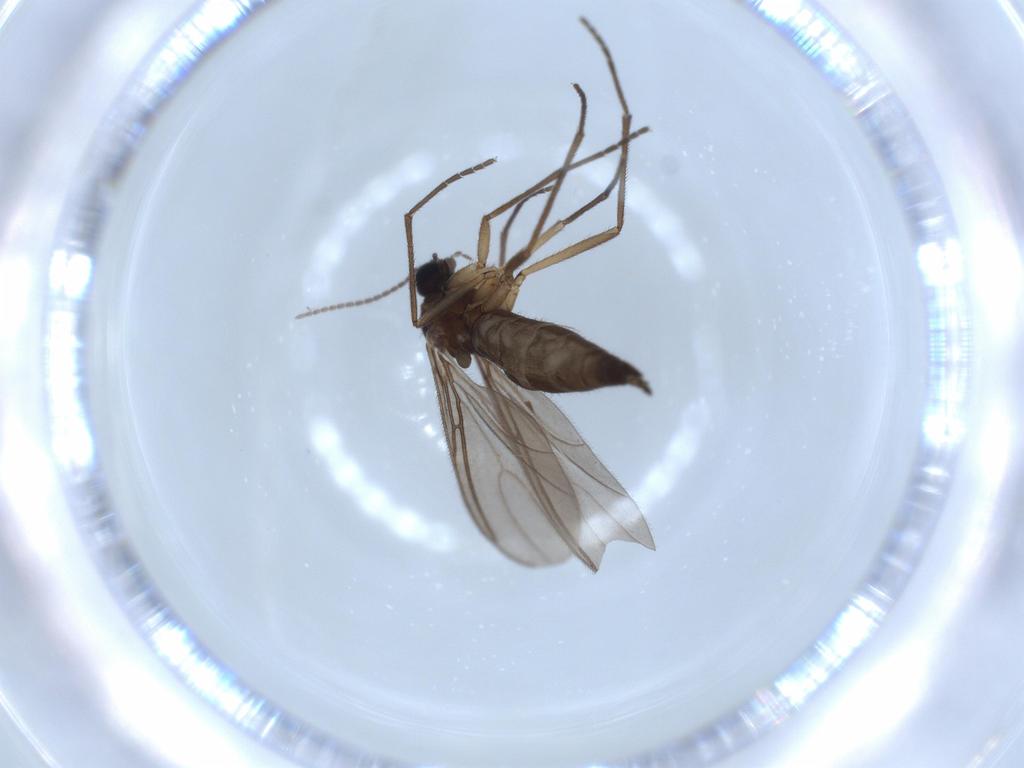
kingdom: Animalia
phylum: Arthropoda
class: Insecta
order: Diptera
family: Sciaridae
